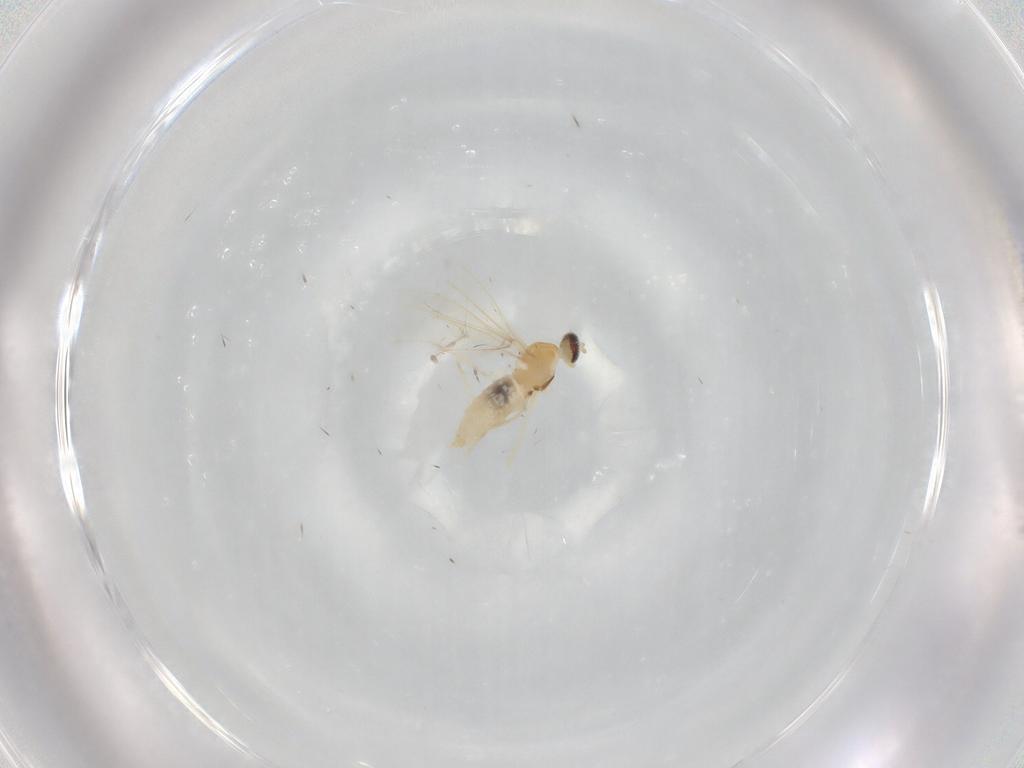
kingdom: Animalia
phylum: Arthropoda
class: Insecta
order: Diptera
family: Cecidomyiidae
